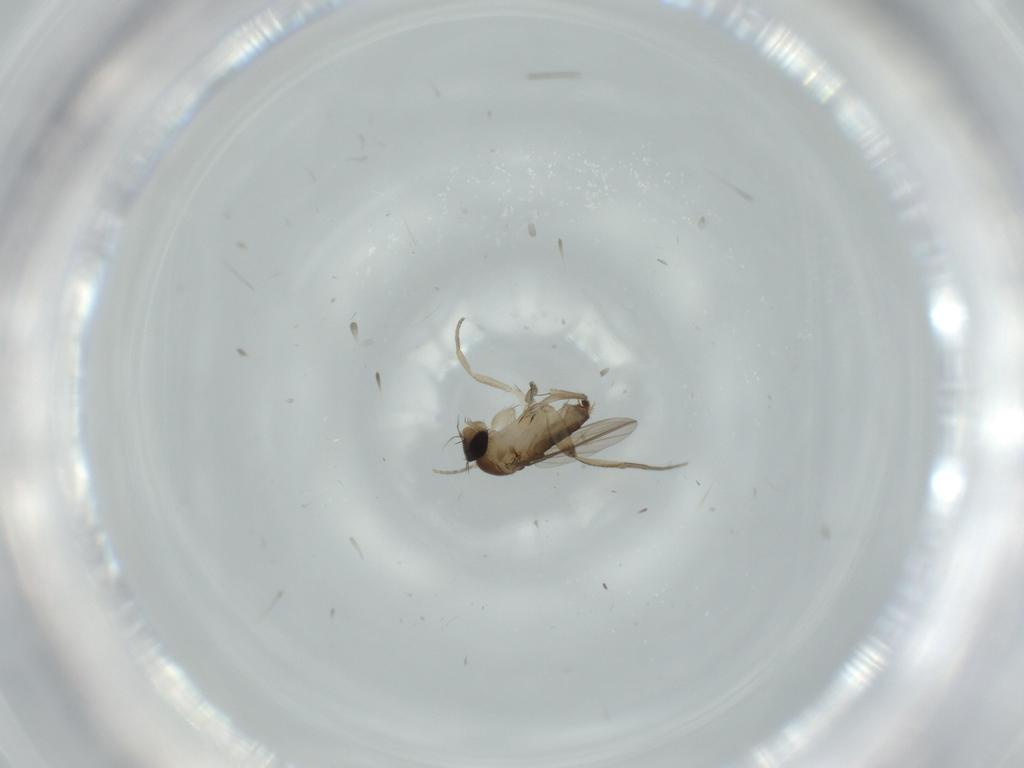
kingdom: Animalia
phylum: Arthropoda
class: Insecta
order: Diptera
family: Phoridae
